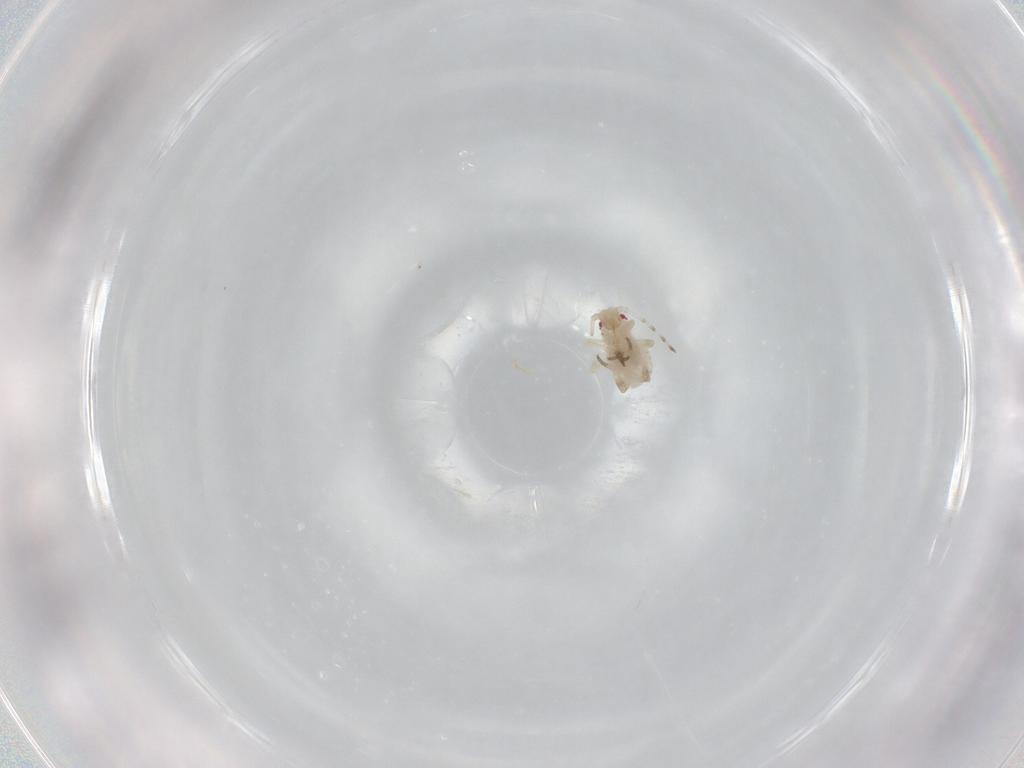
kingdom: Animalia
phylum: Arthropoda
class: Insecta
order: Hemiptera
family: Aphididae
